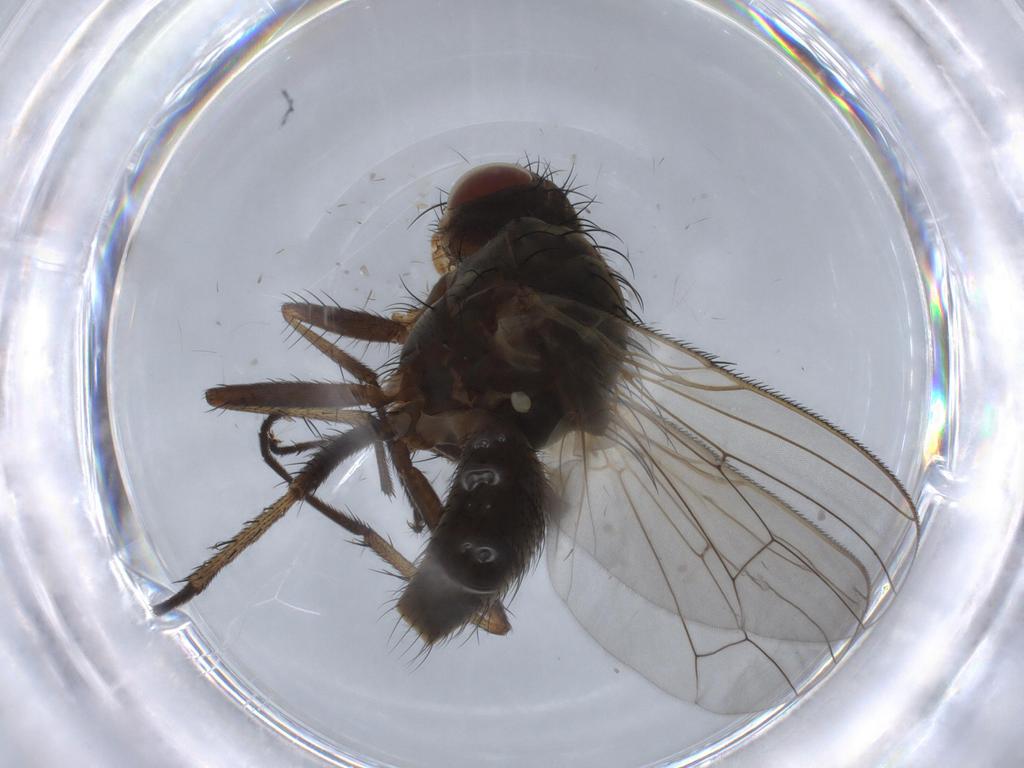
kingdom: Animalia
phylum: Arthropoda
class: Insecta
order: Diptera
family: Anthomyiidae
